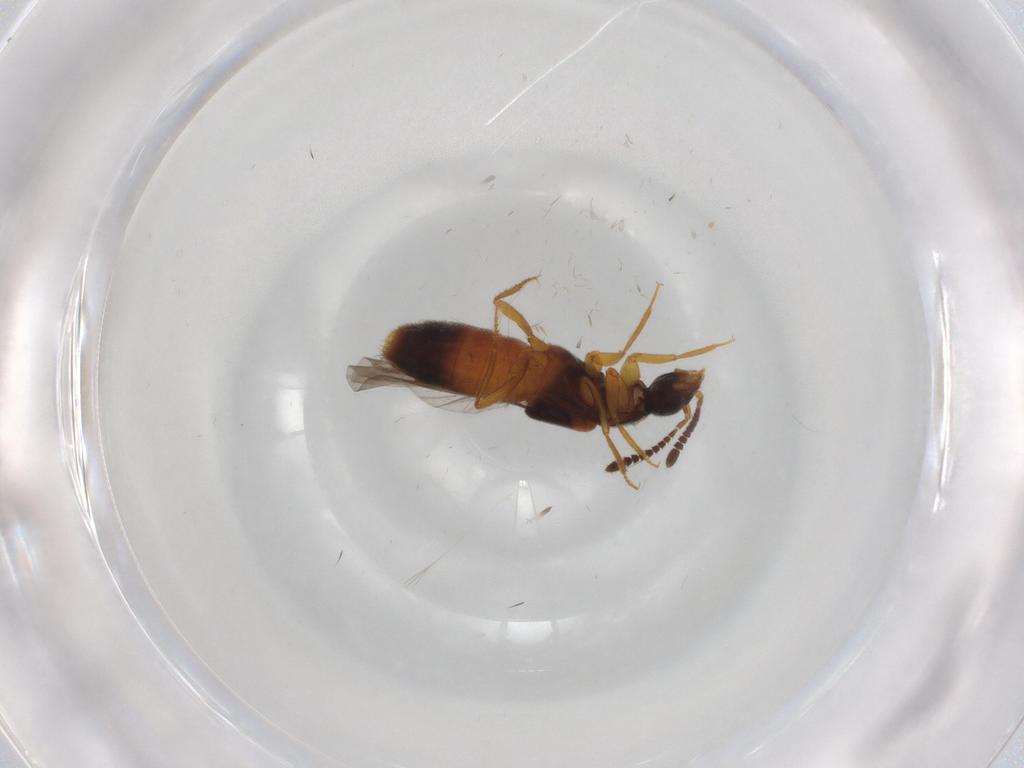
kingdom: Animalia
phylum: Arthropoda
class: Insecta
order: Coleoptera
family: Staphylinidae
